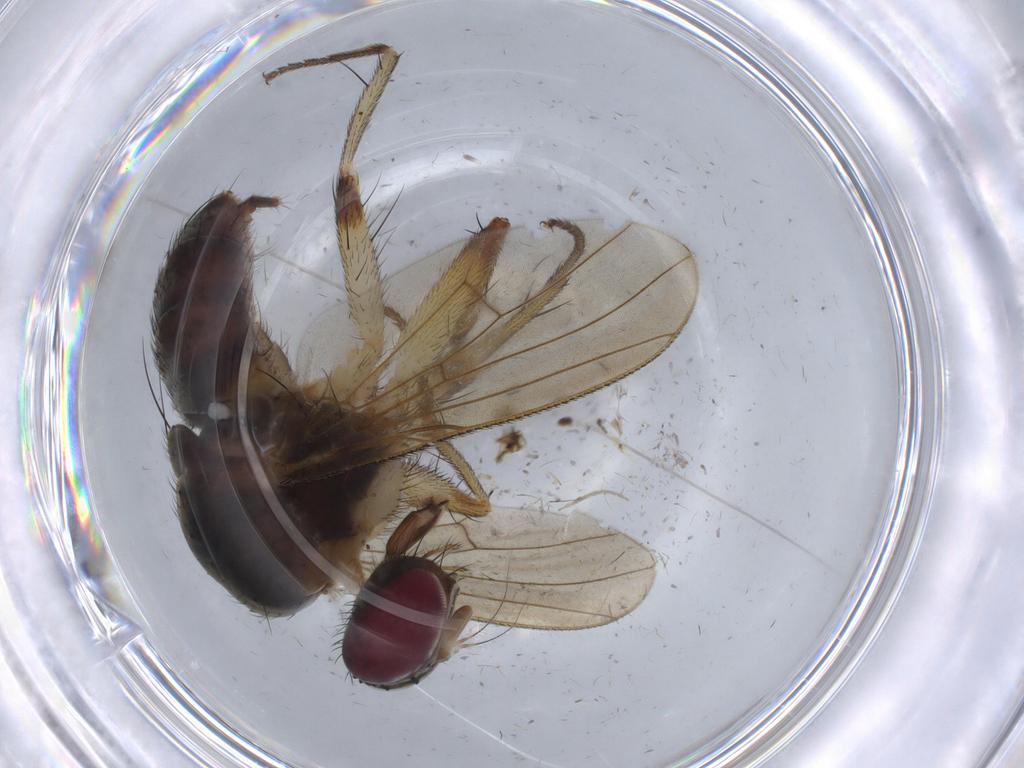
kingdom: Animalia
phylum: Arthropoda
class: Insecta
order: Diptera
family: Muscidae
